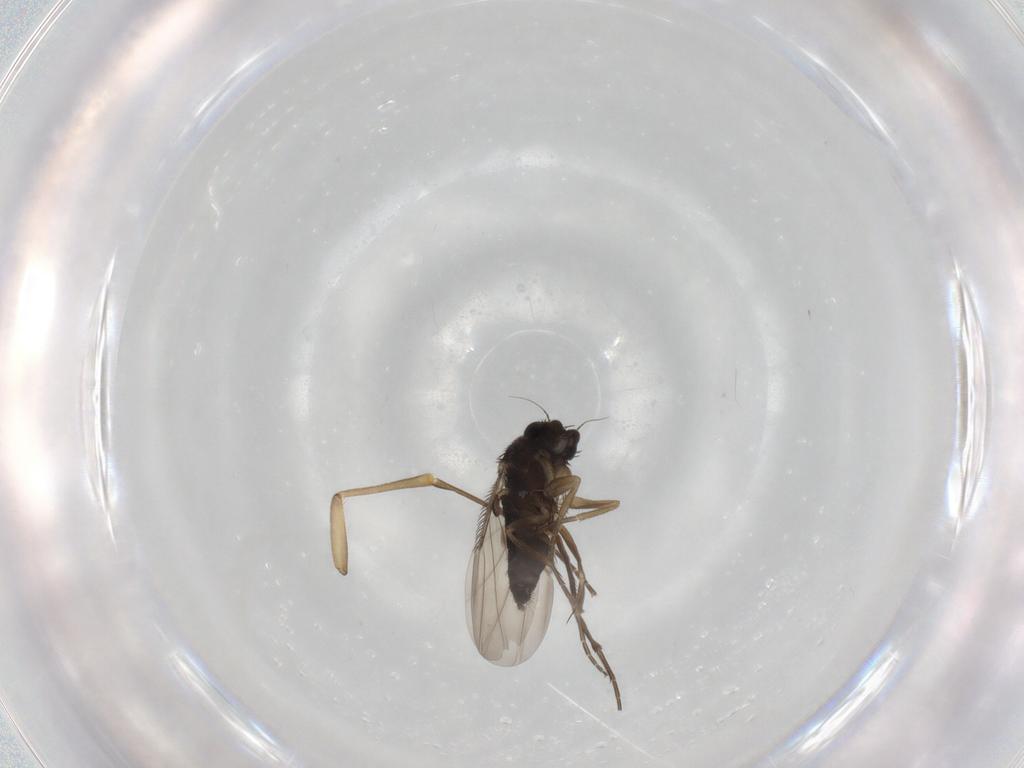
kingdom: Animalia
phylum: Arthropoda
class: Insecta
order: Diptera
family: Phoridae
